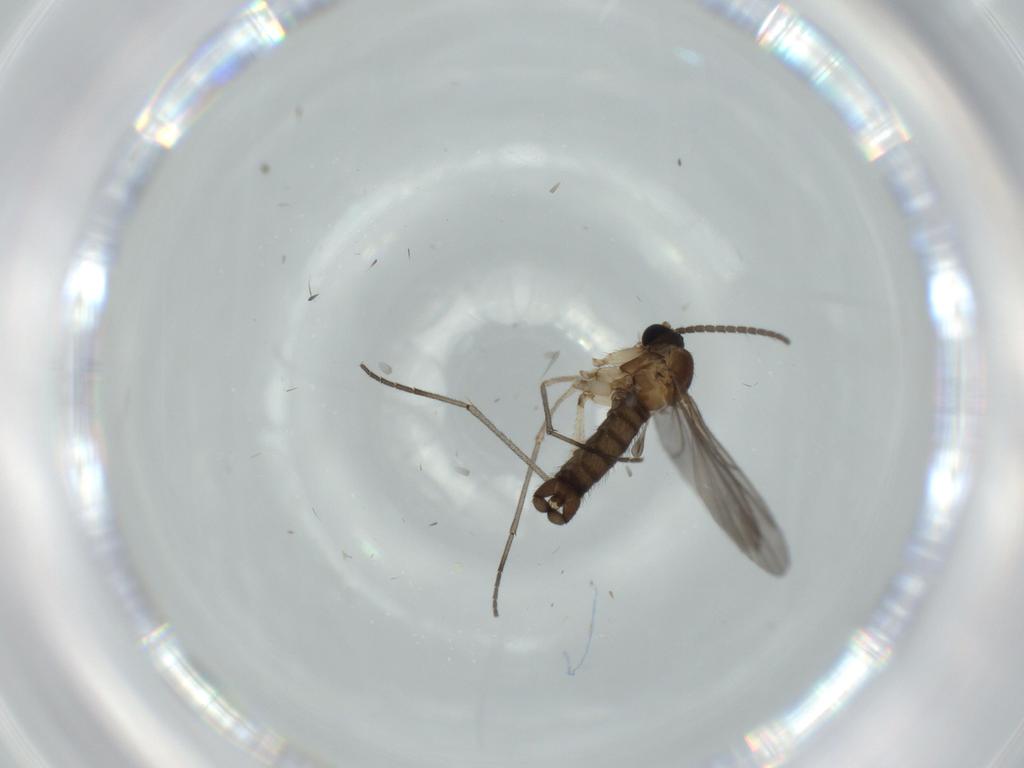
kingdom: Animalia
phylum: Arthropoda
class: Insecta
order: Diptera
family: Sciaridae
